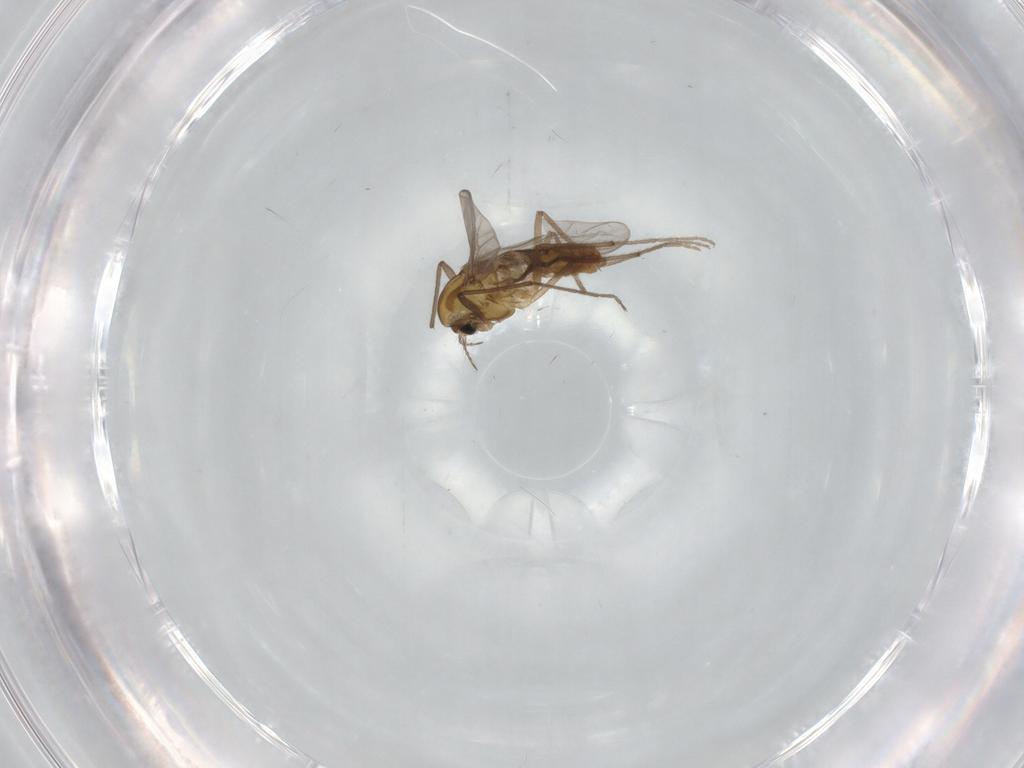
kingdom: Animalia
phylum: Arthropoda
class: Insecta
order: Diptera
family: Chironomidae
